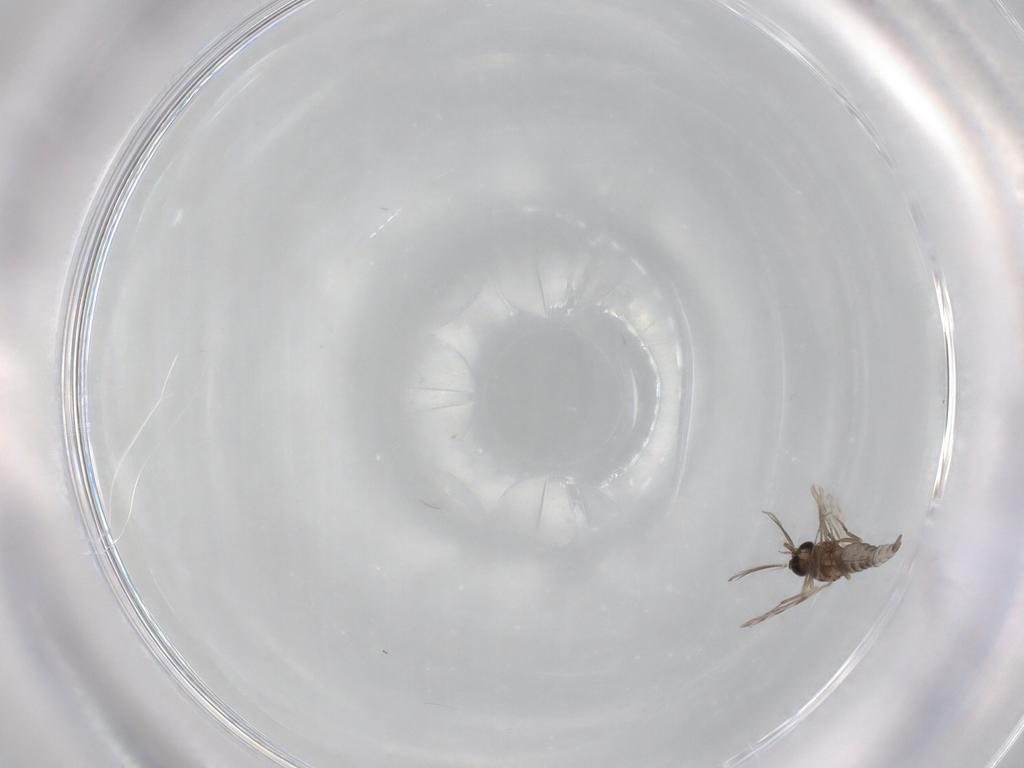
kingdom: Animalia
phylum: Arthropoda
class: Insecta
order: Diptera
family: Ceratopogonidae
